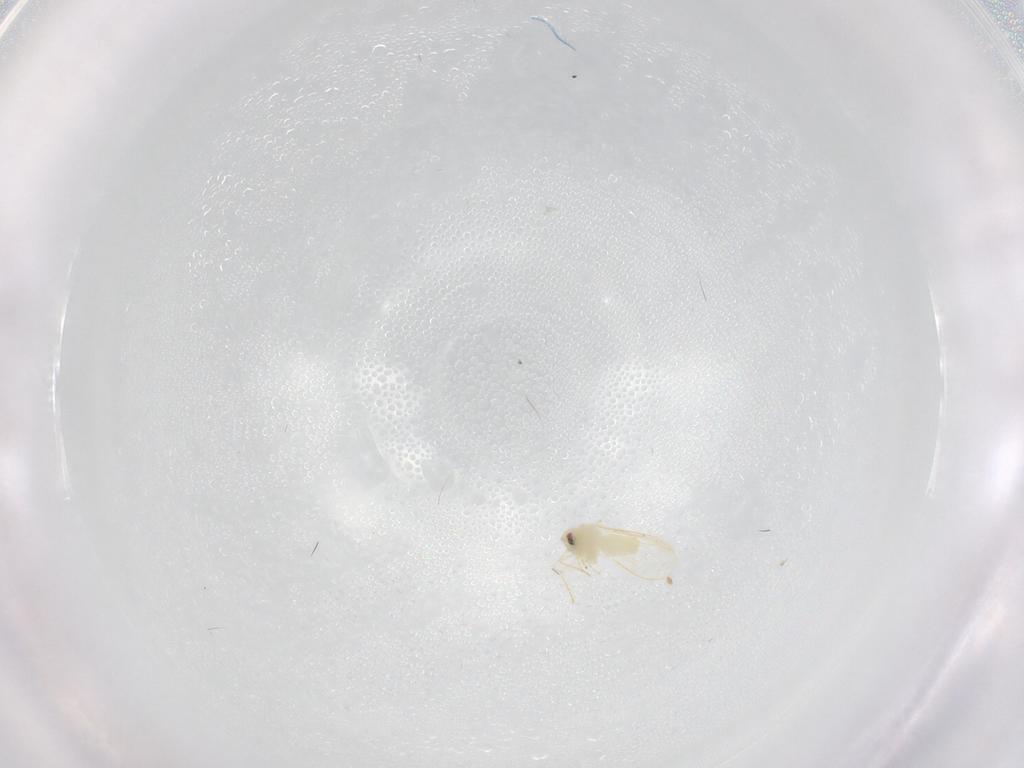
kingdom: Animalia
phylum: Arthropoda
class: Insecta
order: Hemiptera
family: Aleyrodidae
